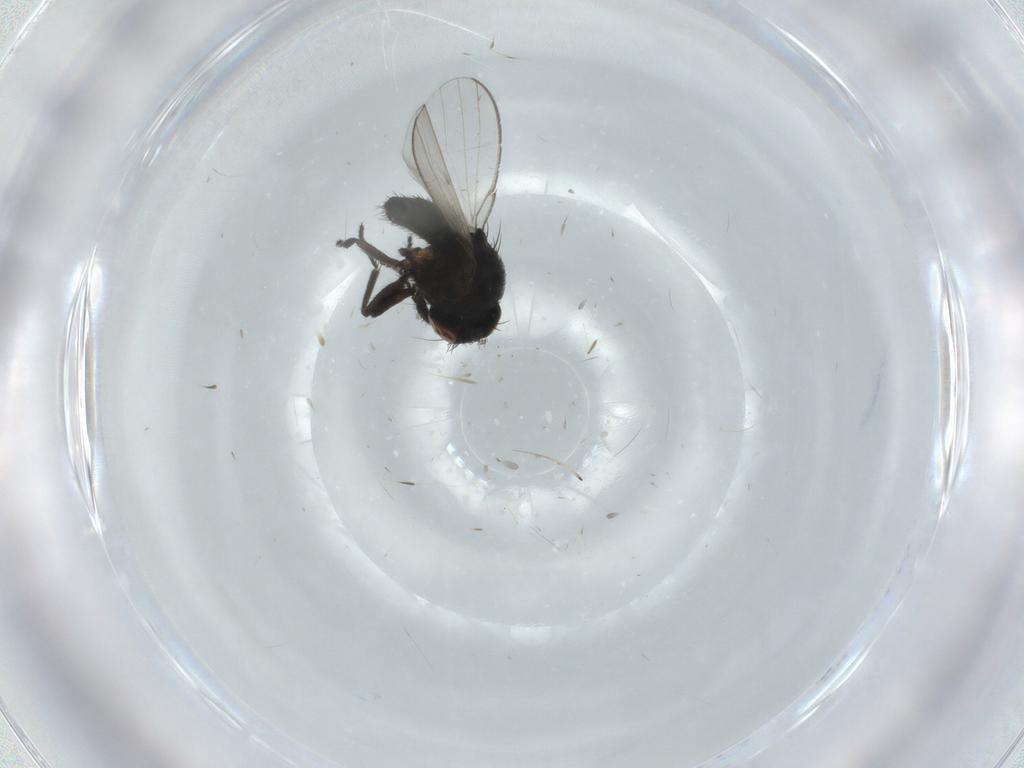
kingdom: Animalia
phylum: Arthropoda
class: Insecta
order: Diptera
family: Milichiidae
